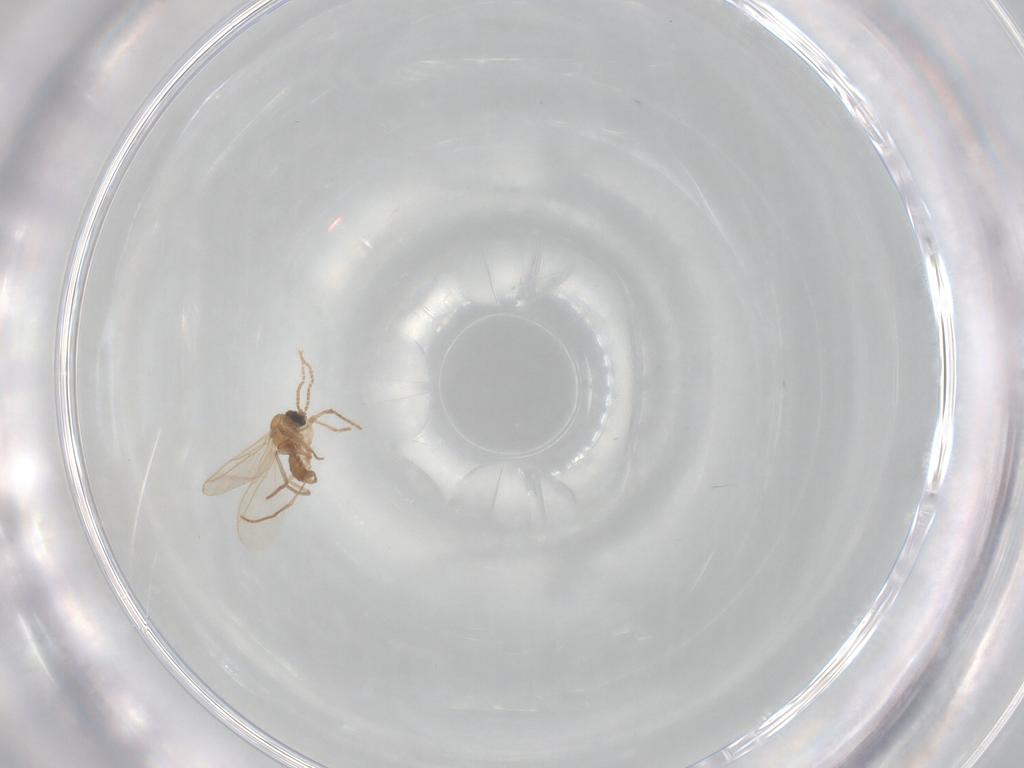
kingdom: Animalia
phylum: Arthropoda
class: Insecta
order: Diptera
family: Sciaridae
